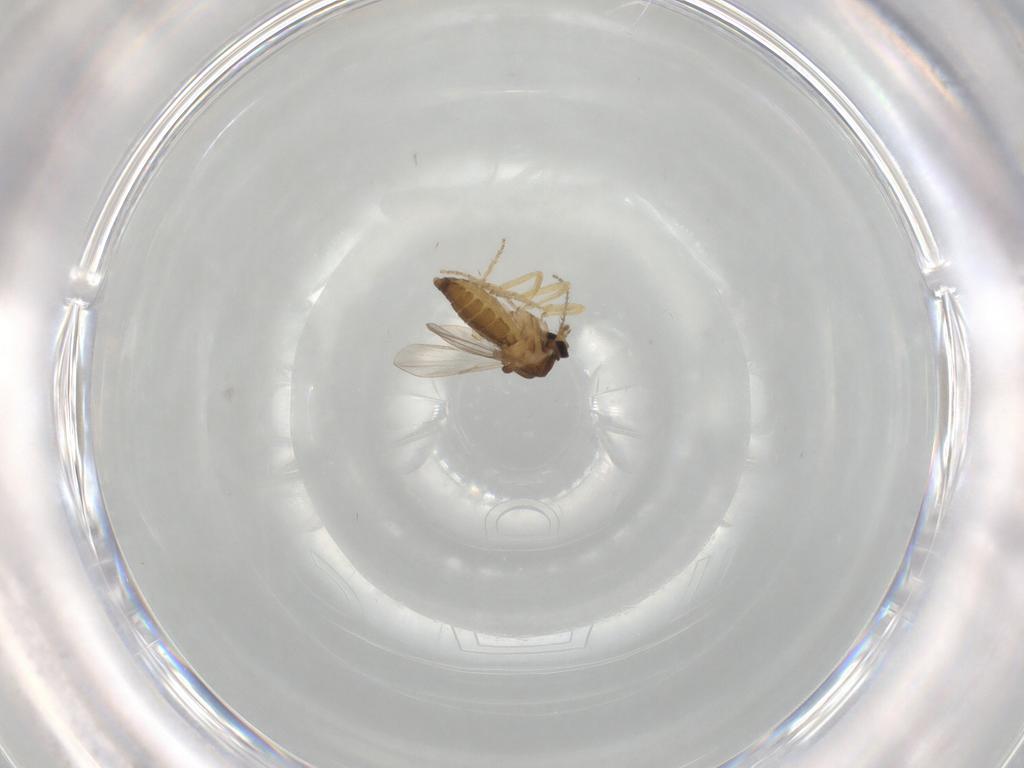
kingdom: Animalia
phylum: Arthropoda
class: Insecta
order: Diptera
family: Ceratopogonidae
